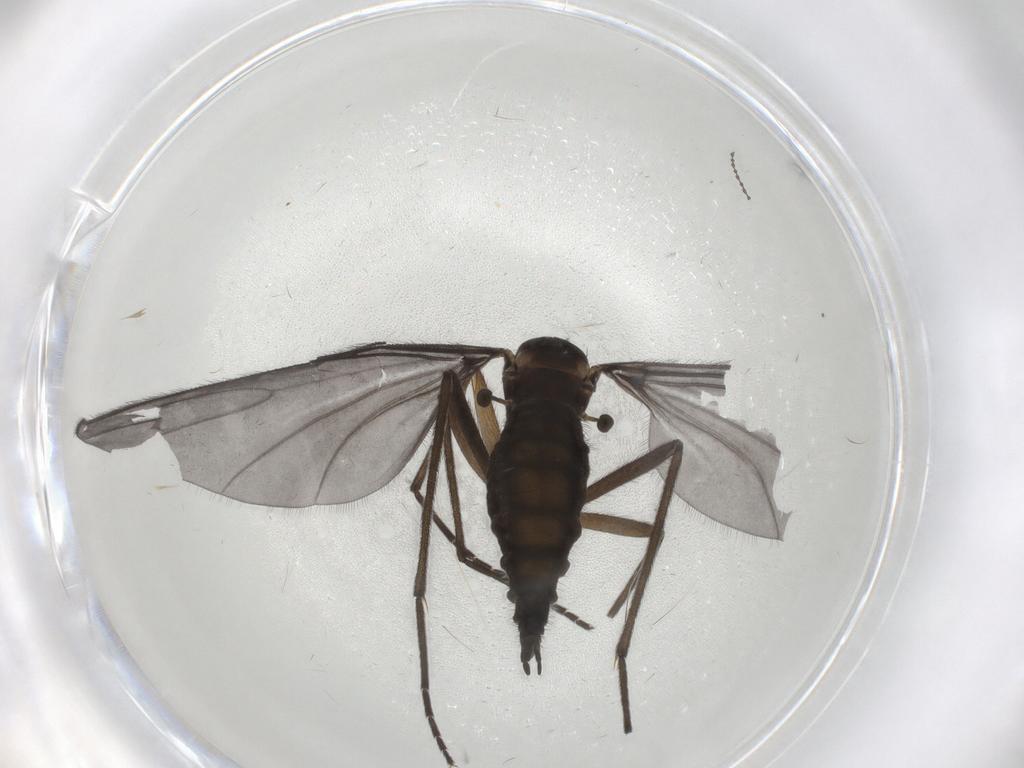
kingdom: Animalia
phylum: Arthropoda
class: Insecta
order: Diptera
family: Sciaridae
